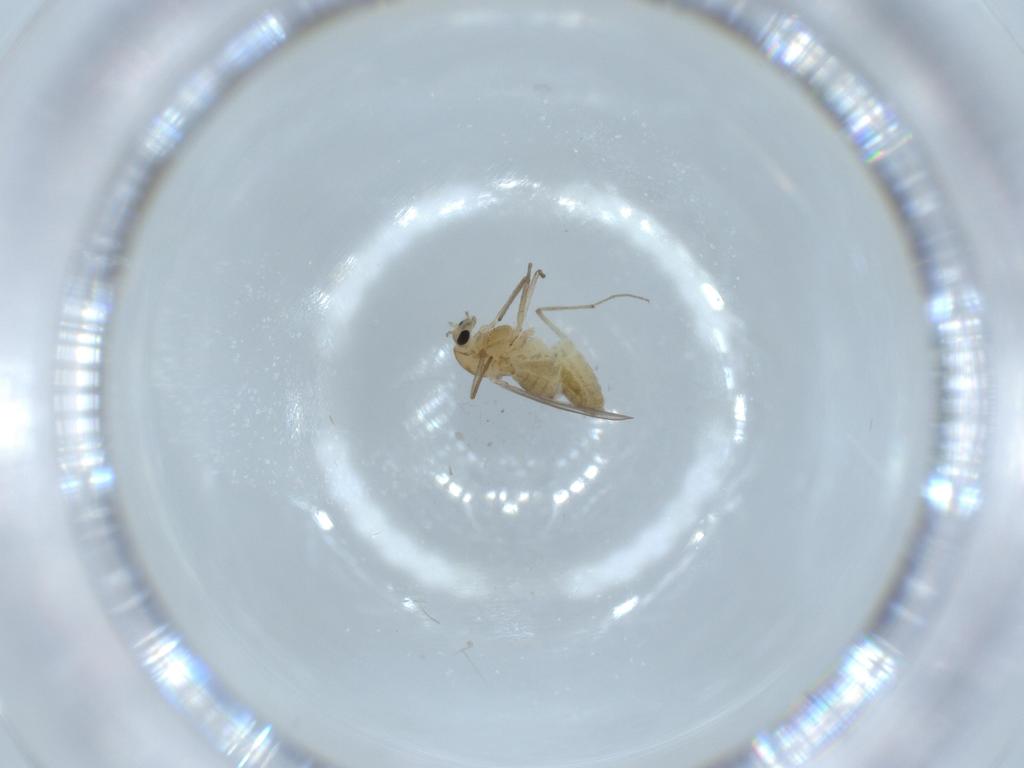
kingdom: Animalia
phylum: Arthropoda
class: Insecta
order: Diptera
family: Chironomidae
